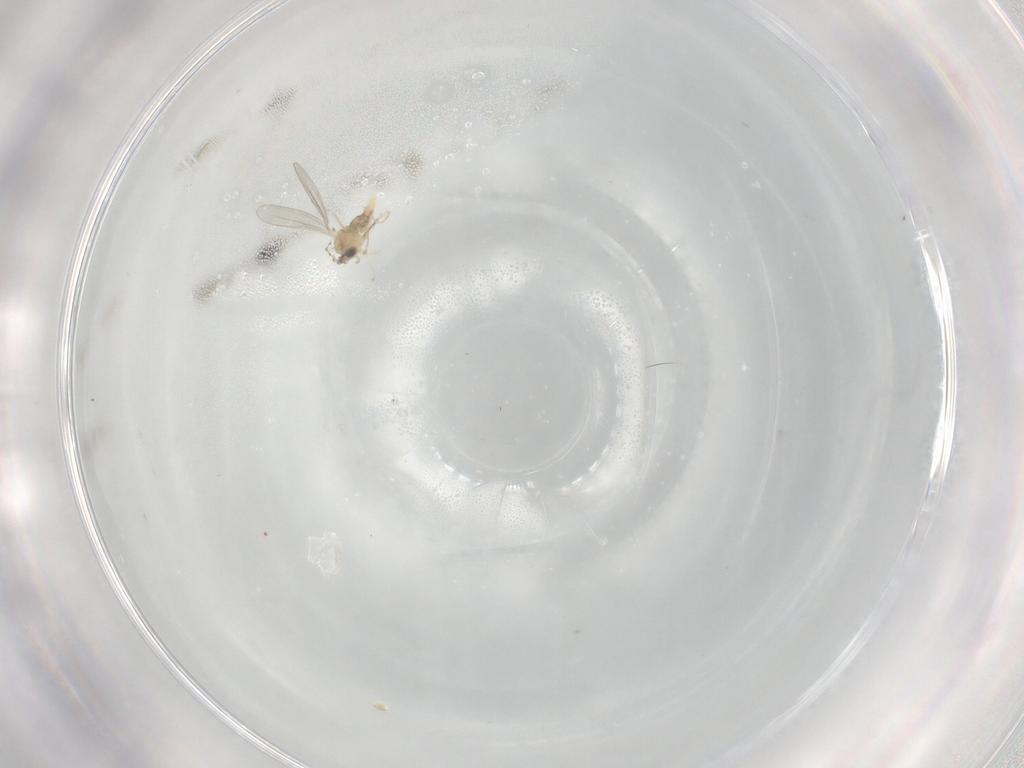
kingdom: Animalia
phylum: Arthropoda
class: Insecta
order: Diptera
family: Cecidomyiidae
